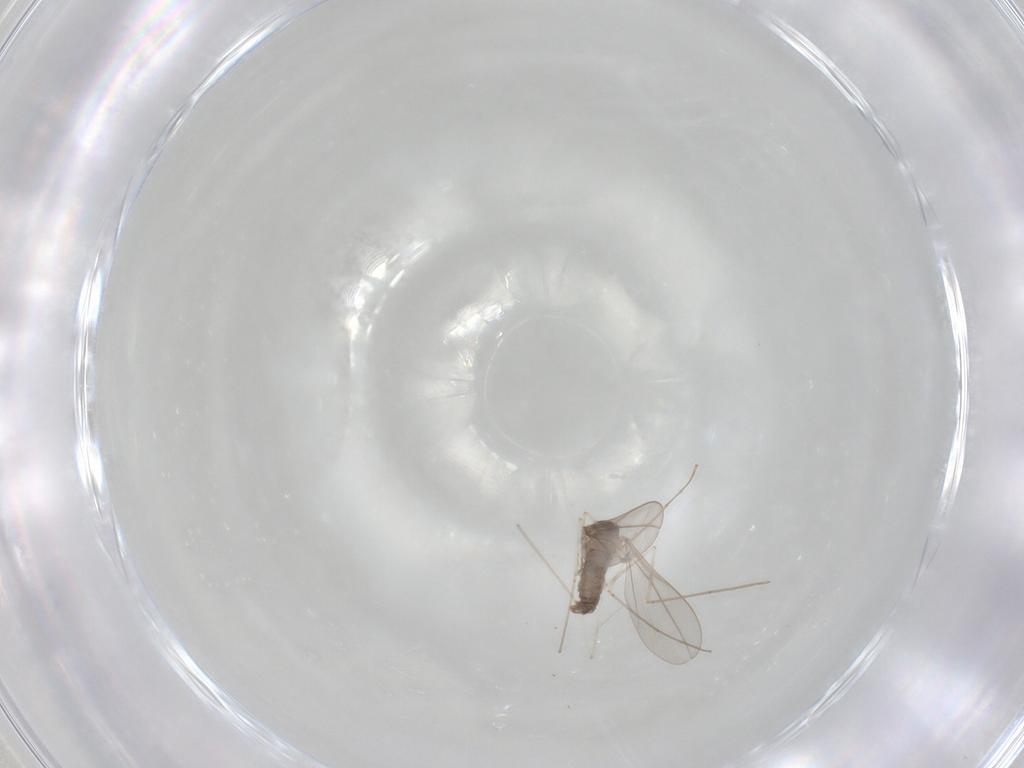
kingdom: Animalia
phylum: Arthropoda
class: Insecta
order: Diptera
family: Cecidomyiidae
